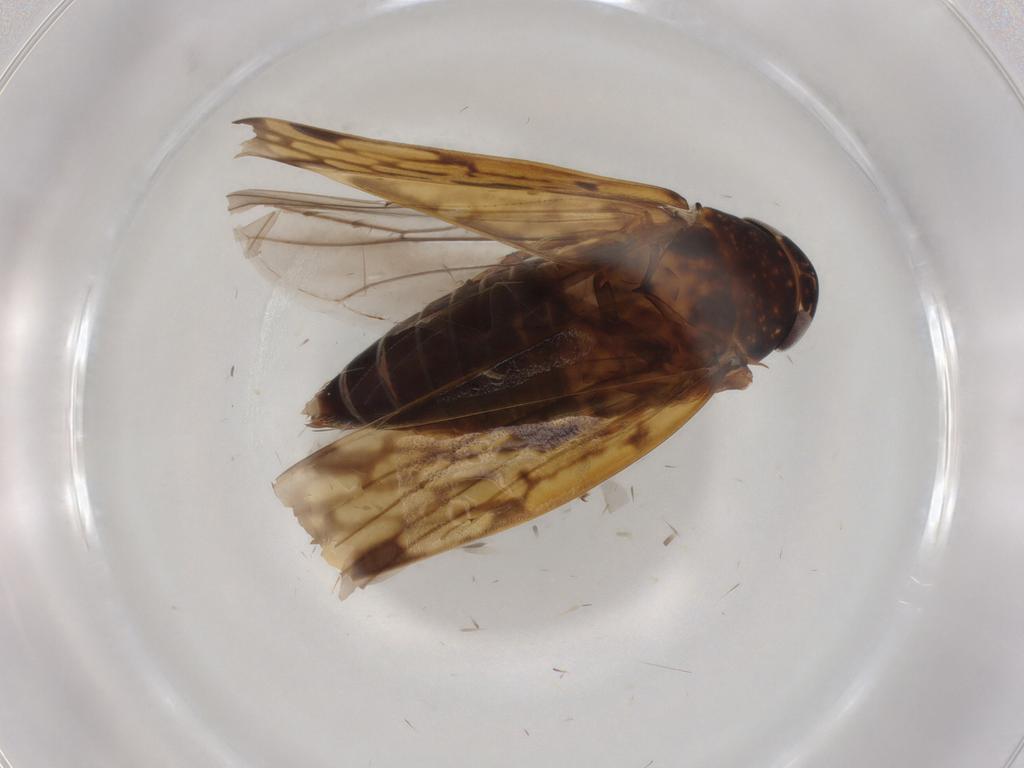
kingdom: Animalia
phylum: Arthropoda
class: Insecta
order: Hemiptera
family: Cicadellidae
